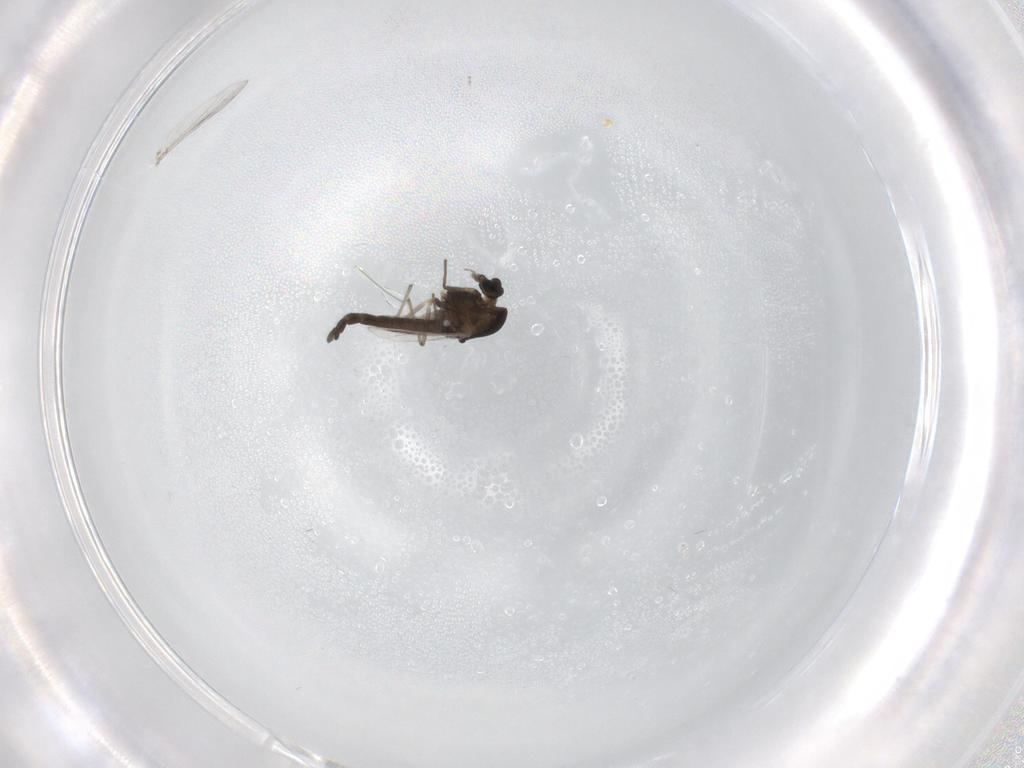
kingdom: Animalia
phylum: Arthropoda
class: Insecta
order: Diptera
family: Chironomidae
